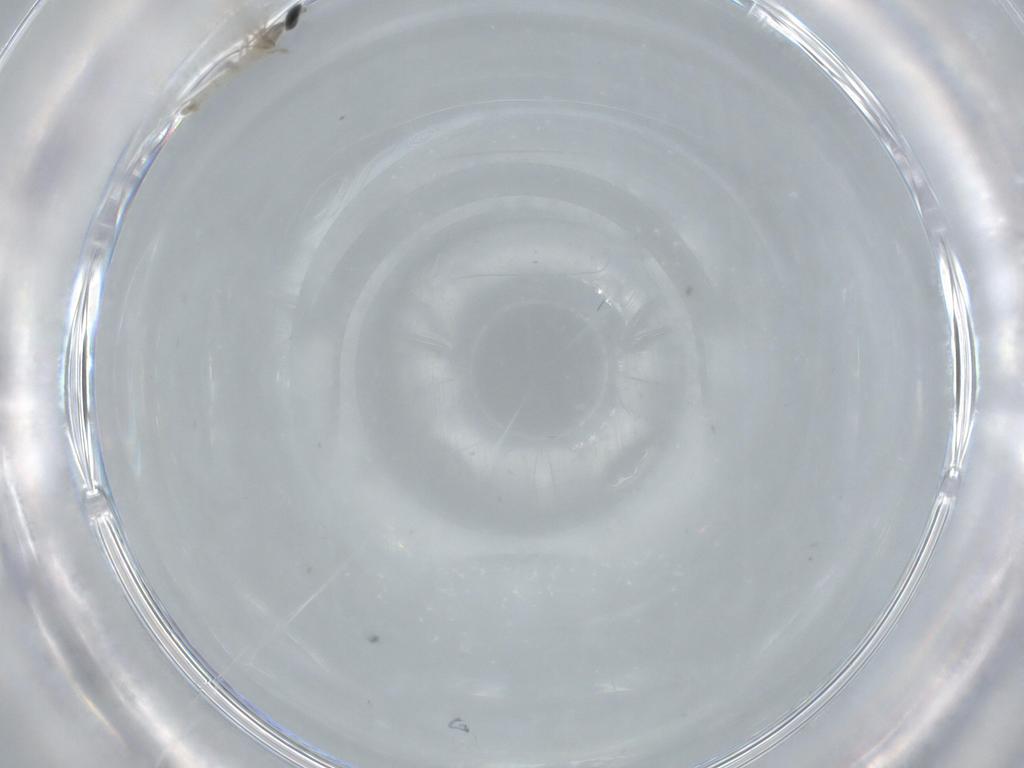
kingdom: Animalia
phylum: Arthropoda
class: Insecta
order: Diptera
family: Cecidomyiidae
